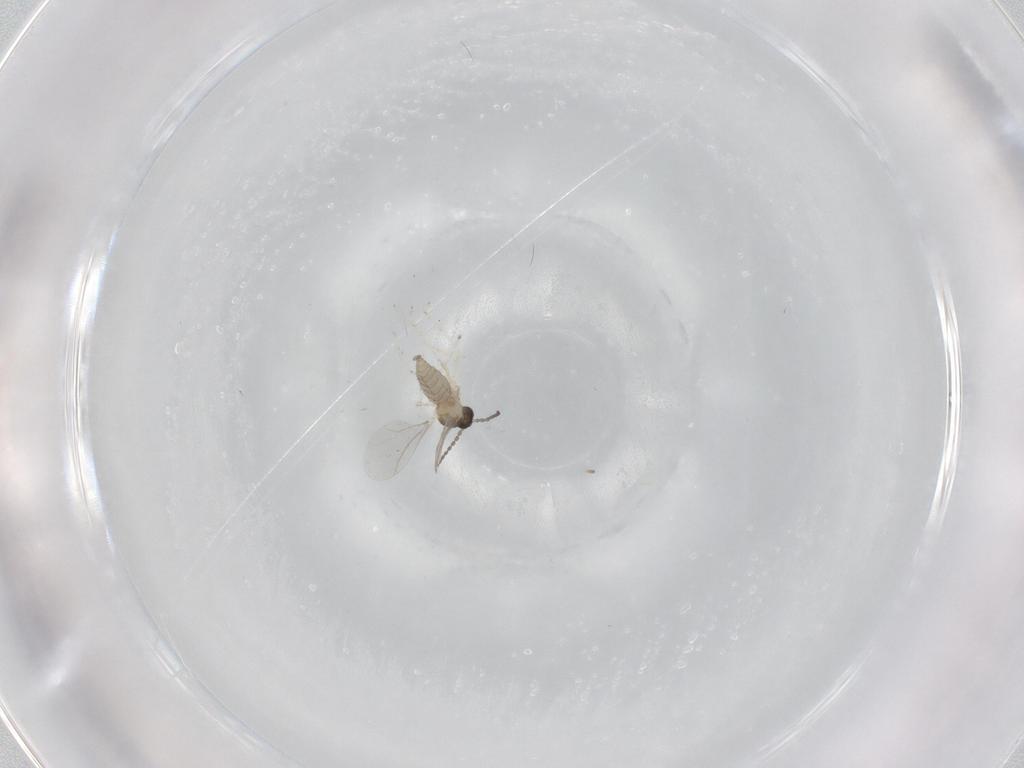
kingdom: Animalia
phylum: Arthropoda
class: Insecta
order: Diptera
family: Cecidomyiidae
